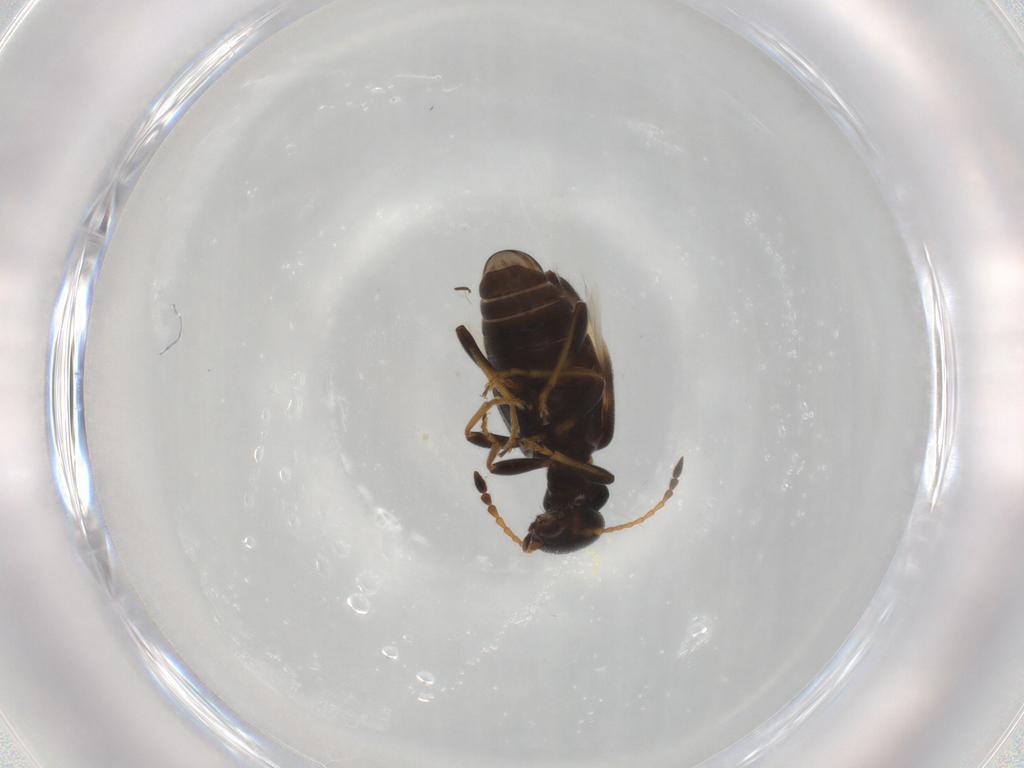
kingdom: Animalia
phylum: Arthropoda
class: Insecta
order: Coleoptera
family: Anthicidae
